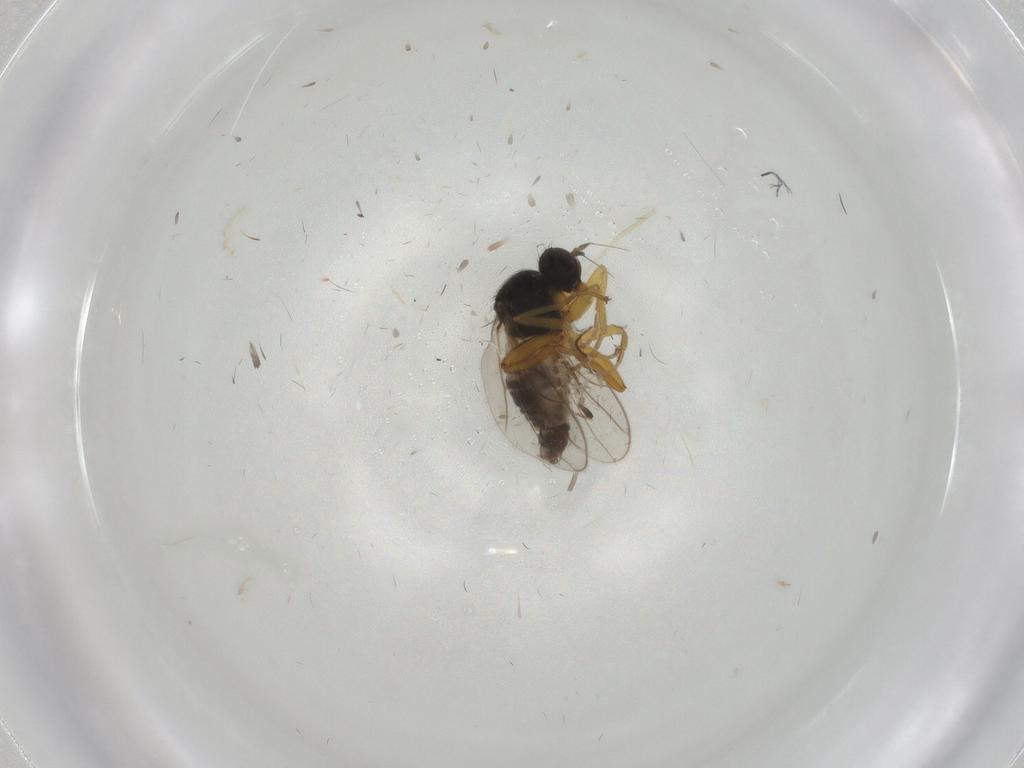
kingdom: Animalia
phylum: Arthropoda
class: Insecta
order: Diptera
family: Hybotidae
